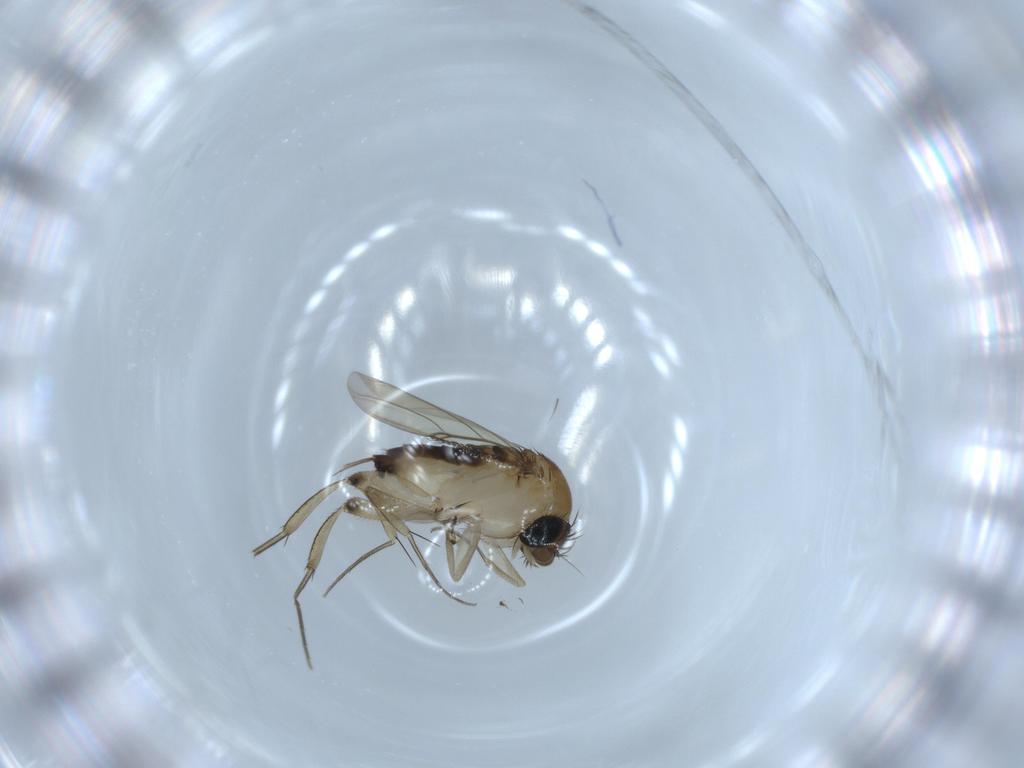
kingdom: Animalia
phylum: Arthropoda
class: Insecta
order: Diptera
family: Phoridae
